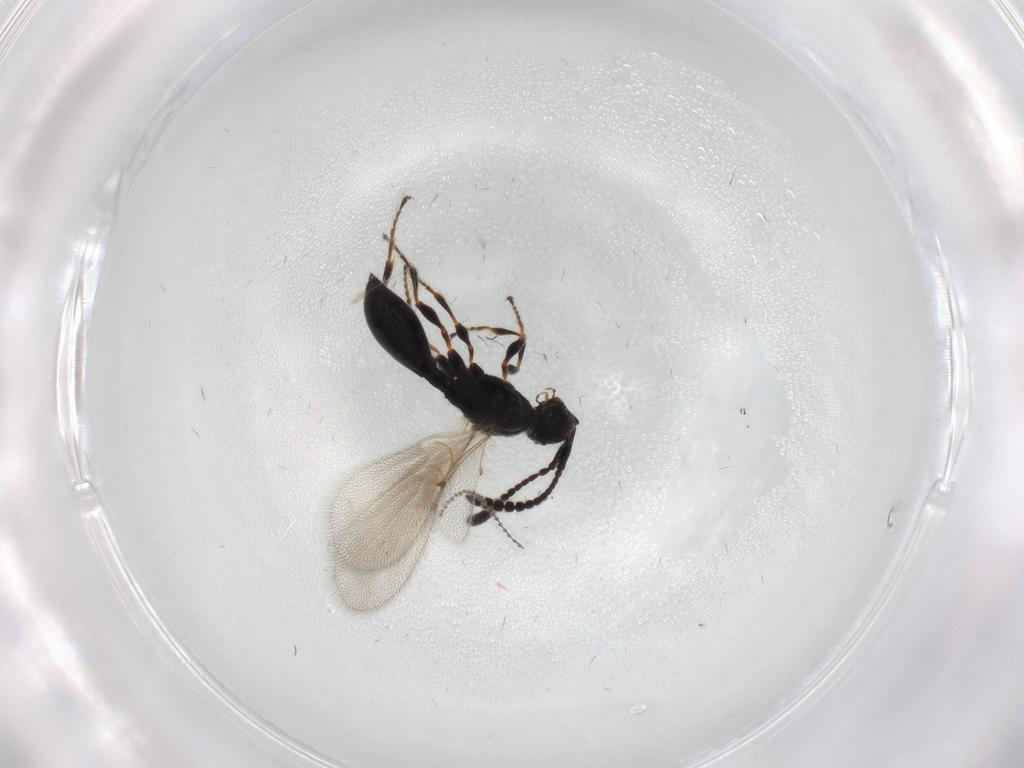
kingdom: Animalia
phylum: Arthropoda
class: Insecta
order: Hymenoptera
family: Diapriidae
